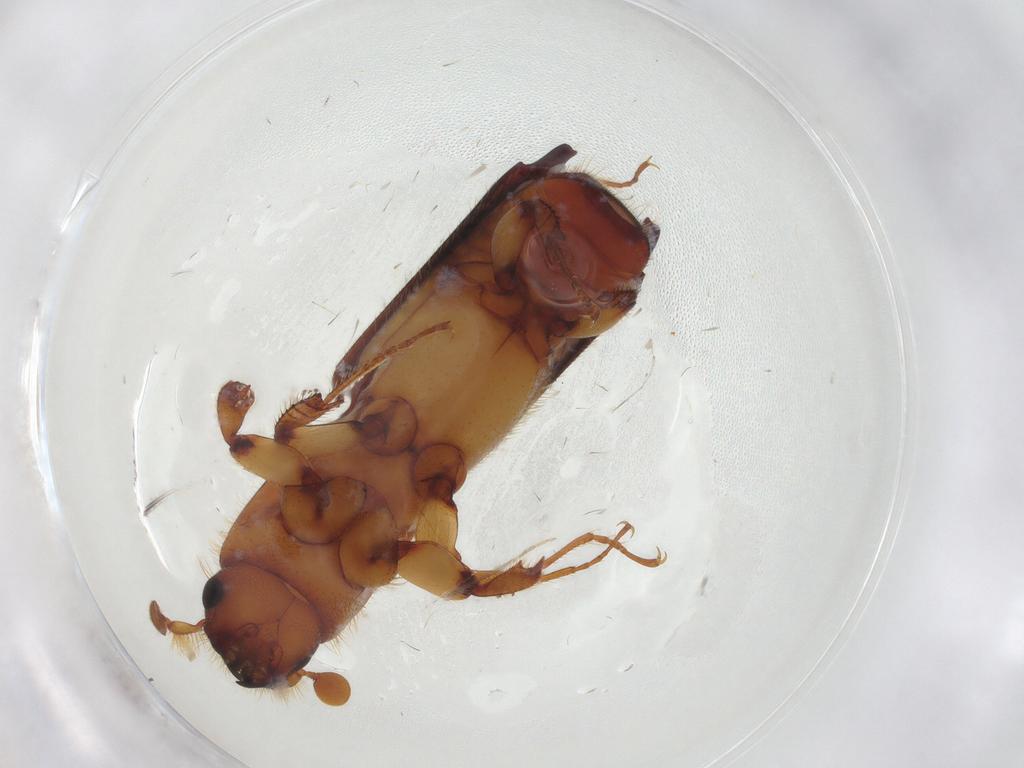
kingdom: Animalia
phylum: Arthropoda
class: Insecta
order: Coleoptera
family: Curculionidae
